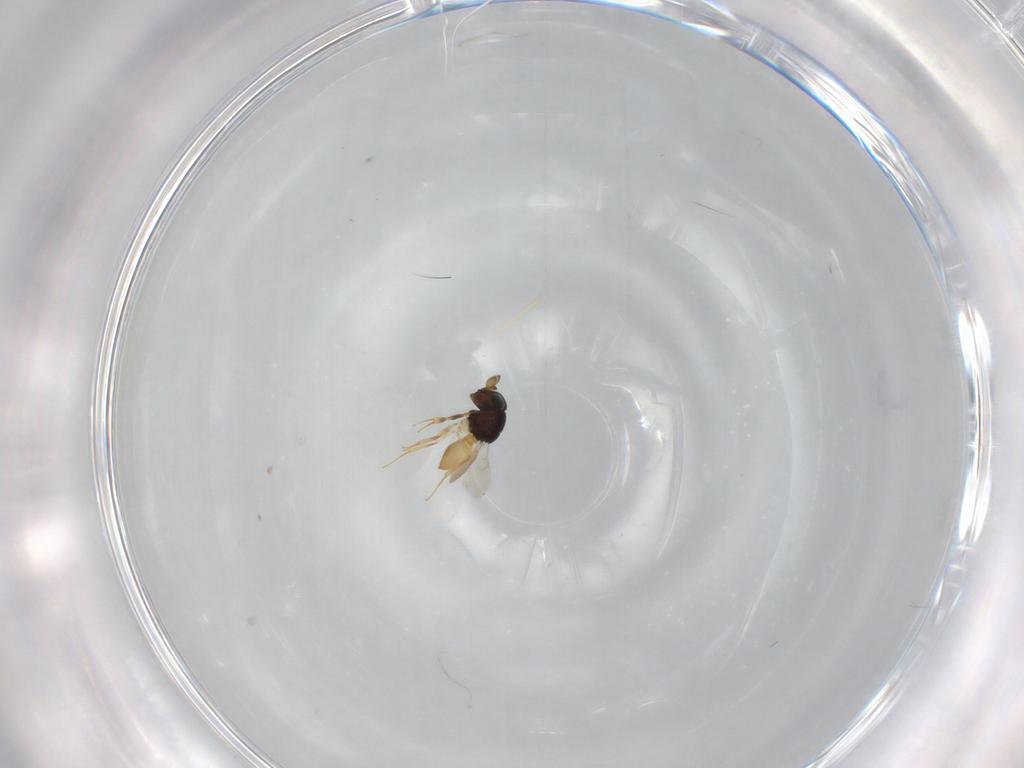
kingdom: Animalia
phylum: Arthropoda
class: Insecta
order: Hymenoptera
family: Scelionidae
